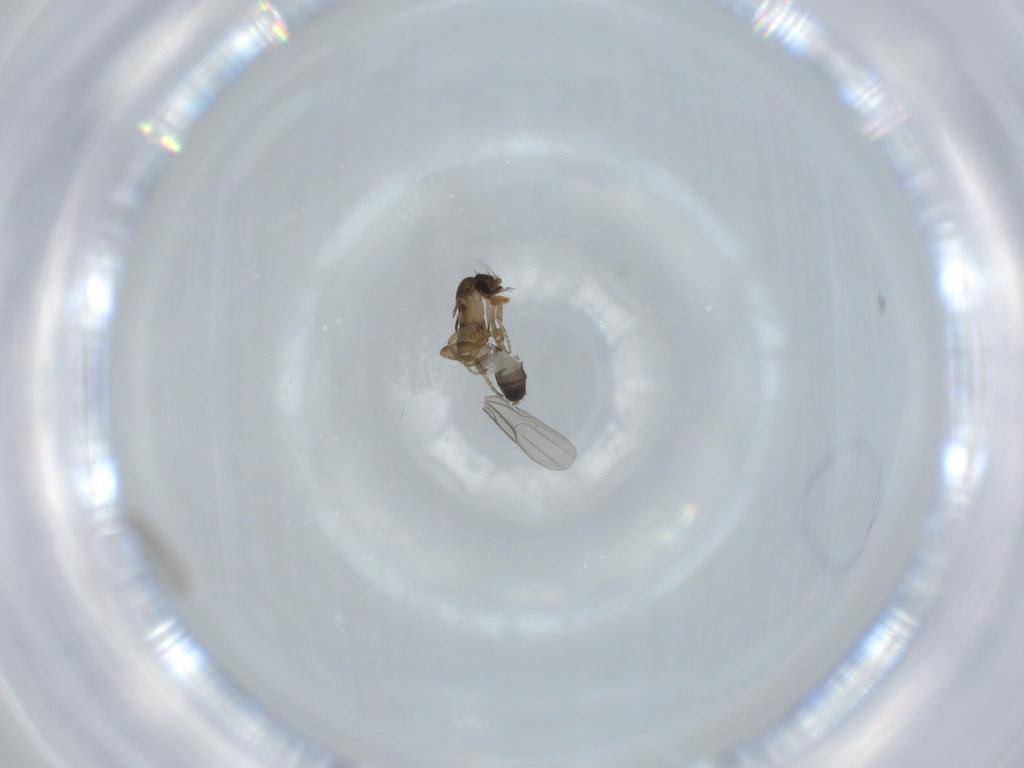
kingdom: Animalia
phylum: Arthropoda
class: Insecta
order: Diptera
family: Phoridae
